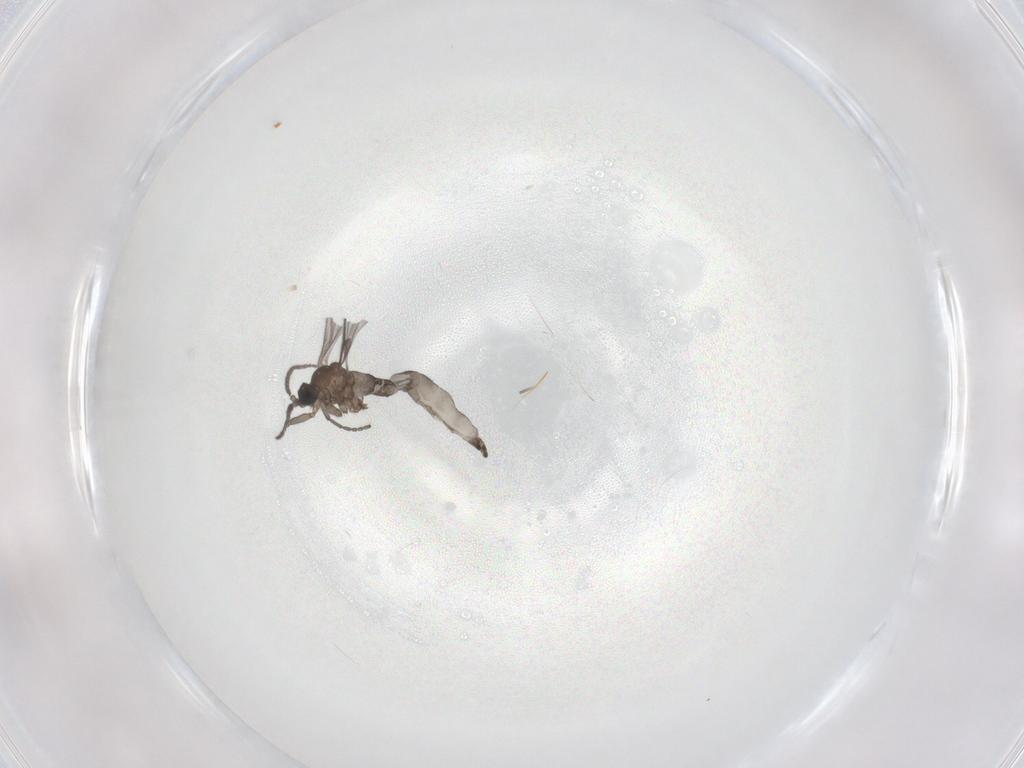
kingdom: Animalia
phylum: Arthropoda
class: Insecta
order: Diptera
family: Sciaridae
